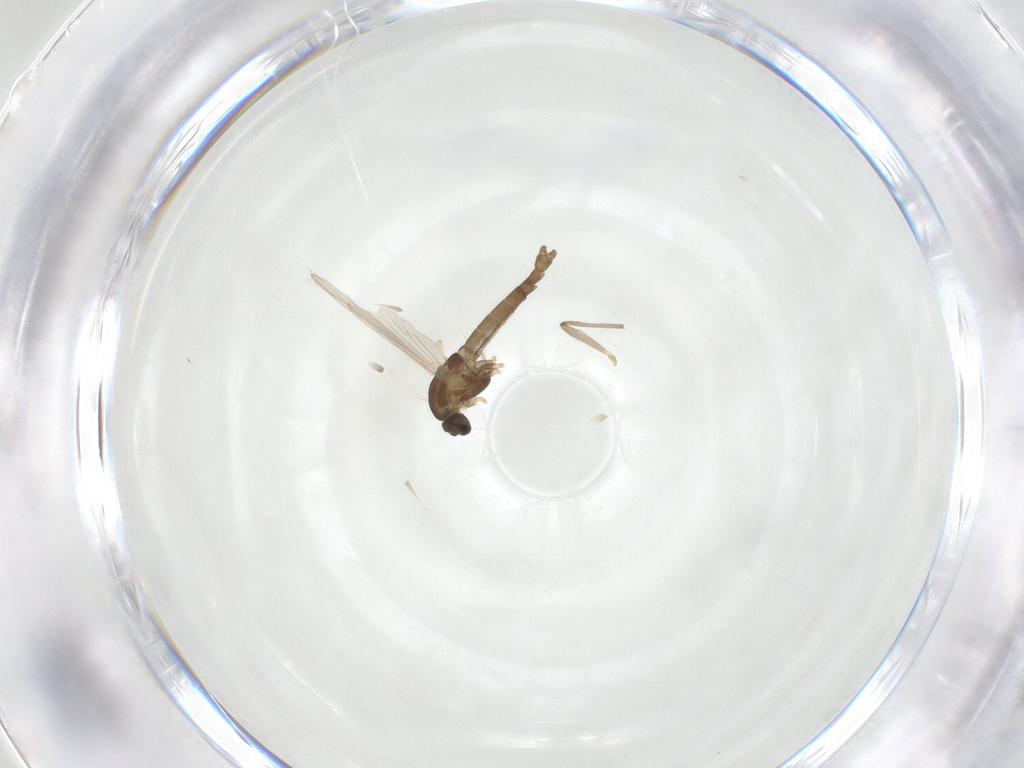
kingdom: Animalia
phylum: Arthropoda
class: Insecta
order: Diptera
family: Chironomidae
